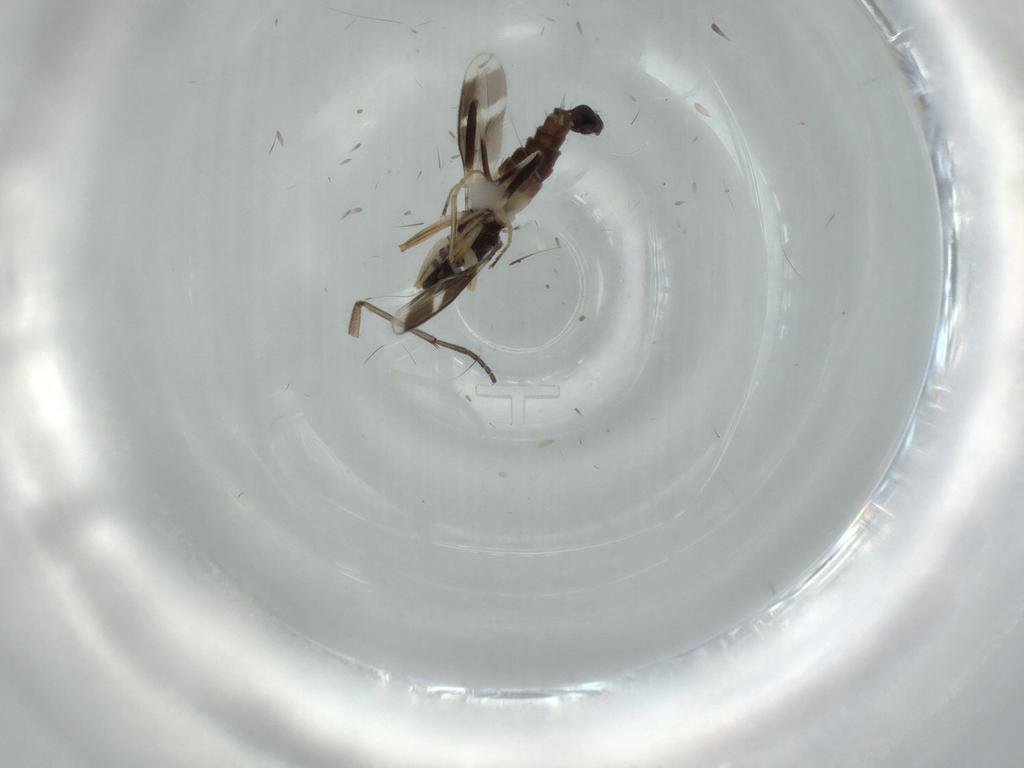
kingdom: Animalia
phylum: Arthropoda
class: Insecta
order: Diptera
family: Hybotidae
